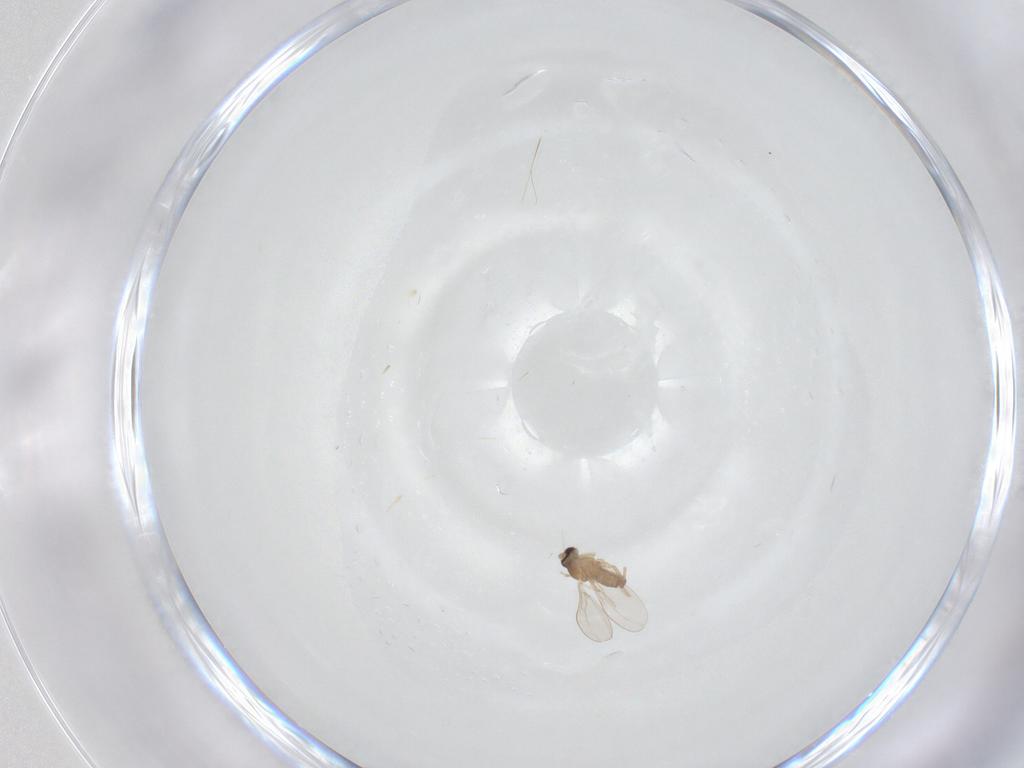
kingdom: Animalia
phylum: Arthropoda
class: Insecta
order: Diptera
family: Cecidomyiidae
